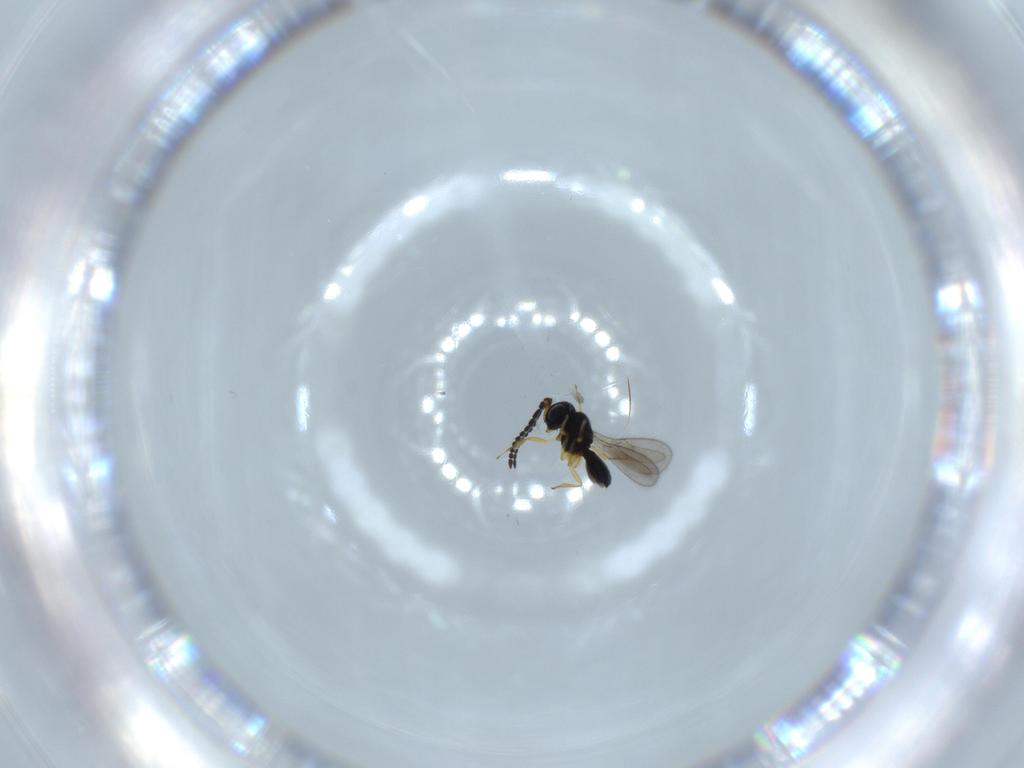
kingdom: Animalia
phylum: Arthropoda
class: Insecta
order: Hymenoptera
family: Scelionidae
